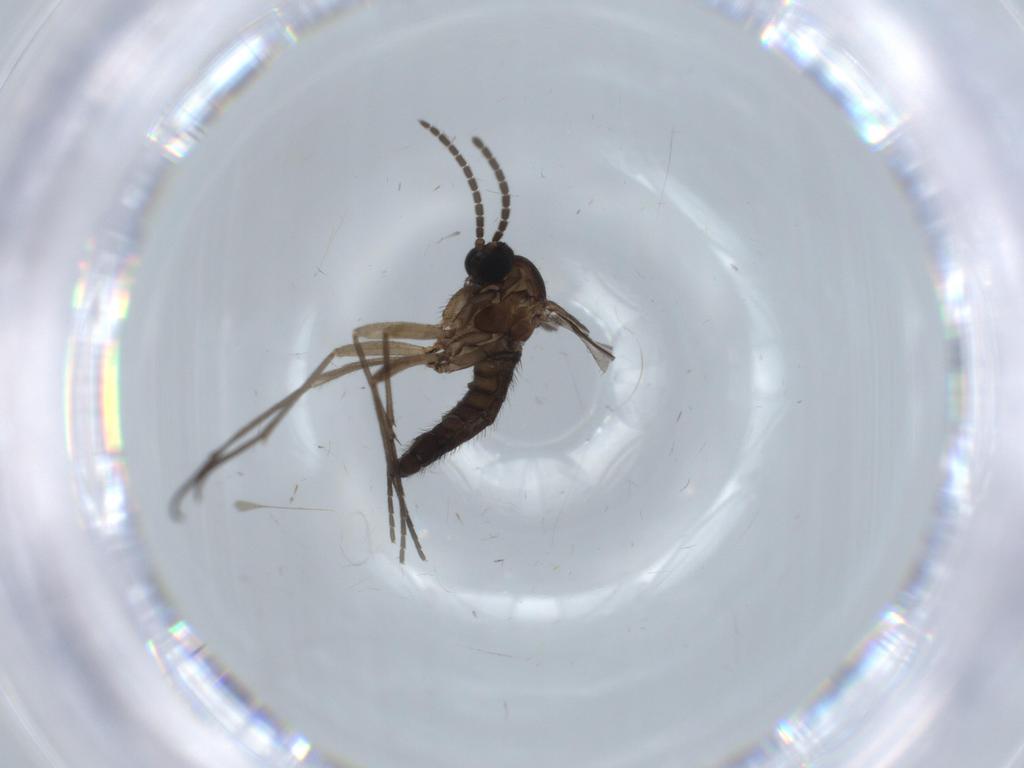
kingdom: Animalia
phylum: Arthropoda
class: Insecta
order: Diptera
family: Sciaridae
